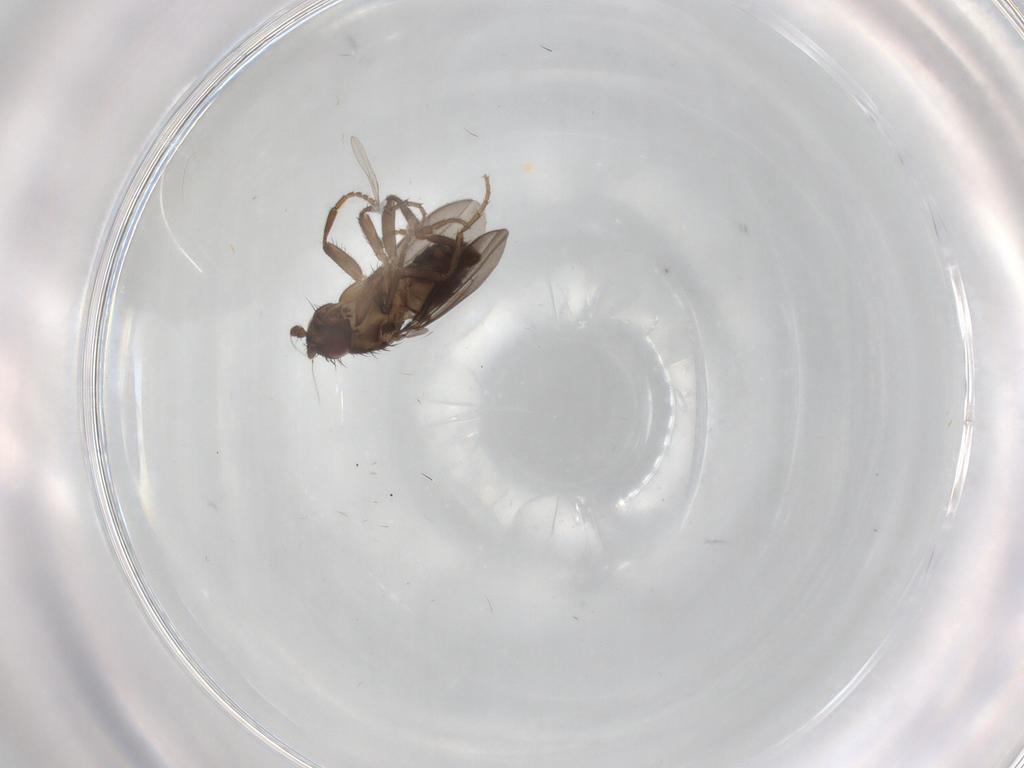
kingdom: Animalia
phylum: Arthropoda
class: Insecta
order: Diptera
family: Sphaeroceridae
